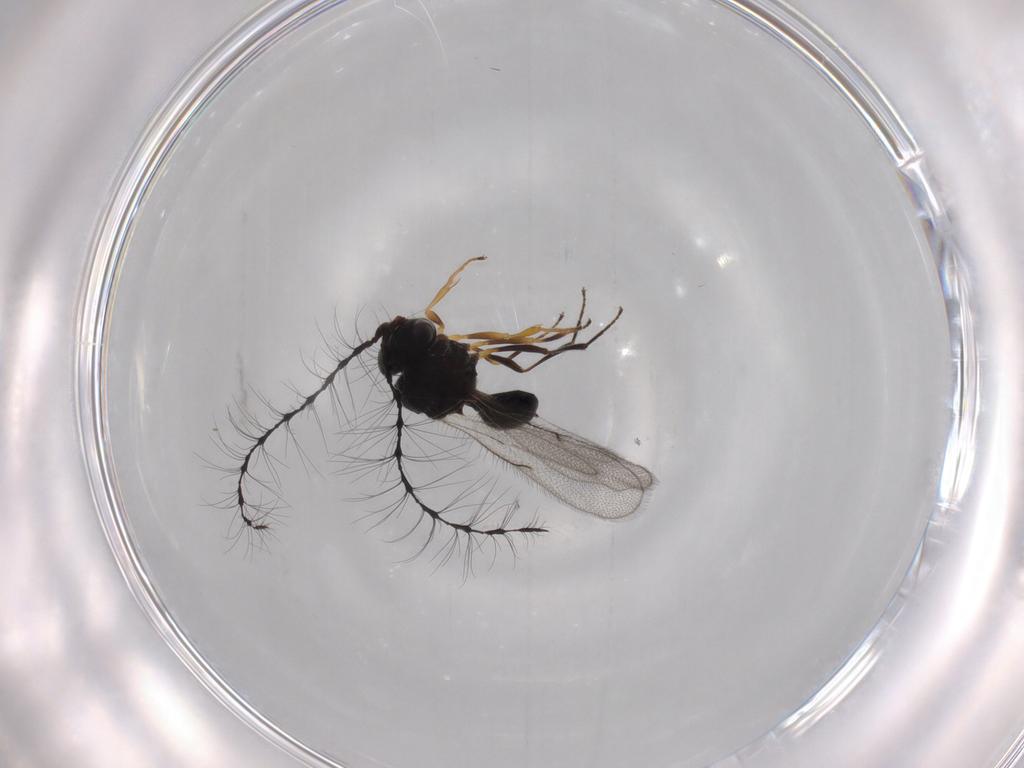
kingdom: Animalia
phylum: Arthropoda
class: Insecta
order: Hymenoptera
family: Scelionidae
